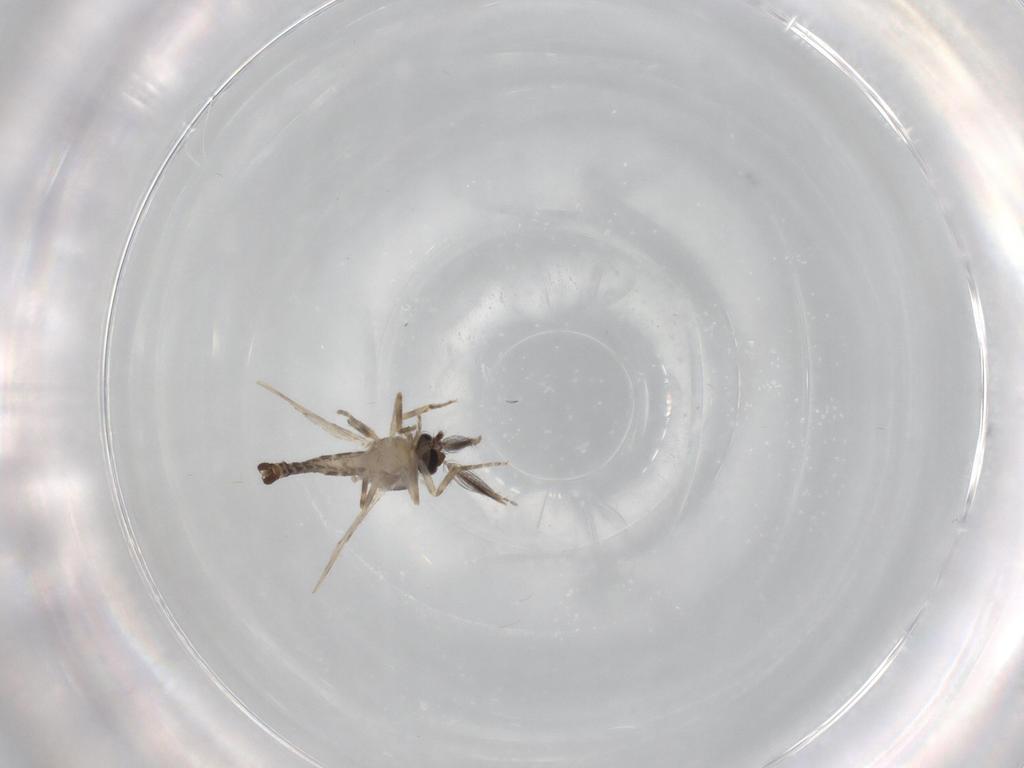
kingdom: Animalia
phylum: Arthropoda
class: Insecta
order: Diptera
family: Ceratopogonidae
